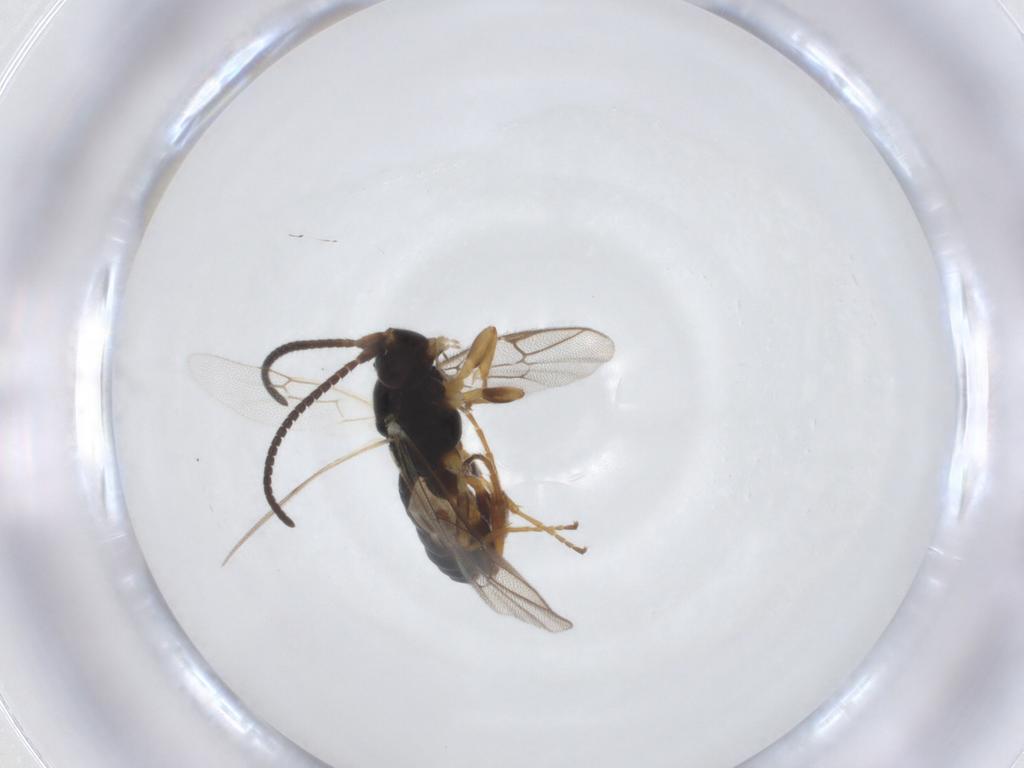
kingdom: Animalia
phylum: Arthropoda
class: Insecta
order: Hymenoptera
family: Ichneumonidae
